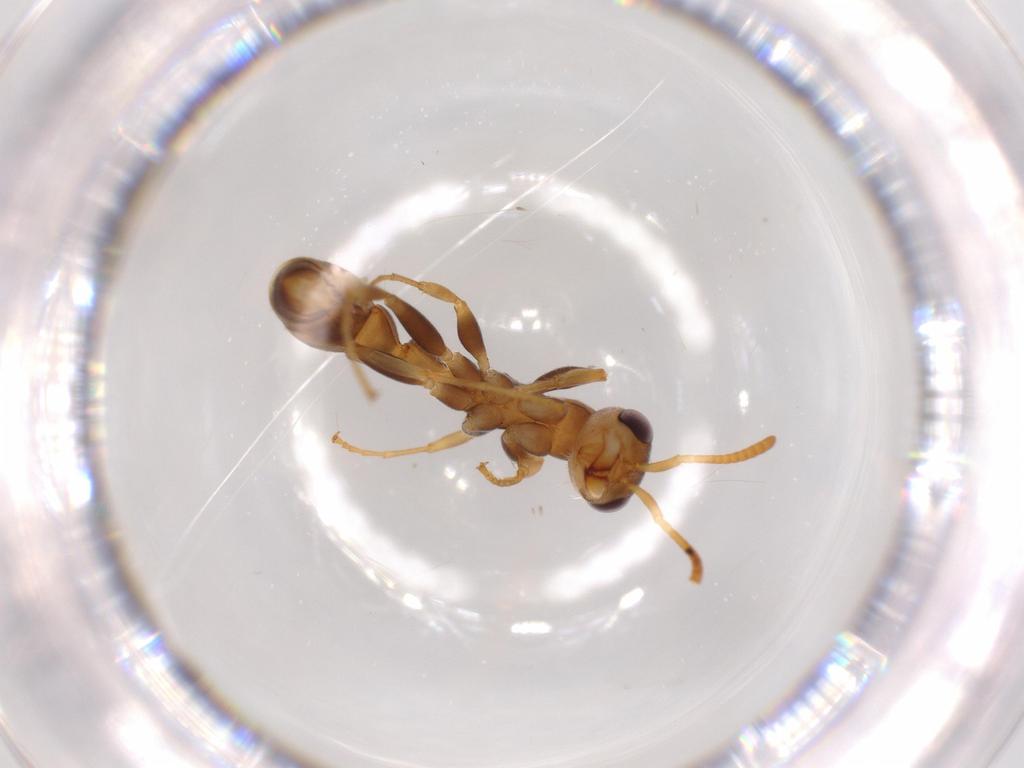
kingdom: Animalia
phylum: Arthropoda
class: Insecta
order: Hymenoptera
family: Formicidae
